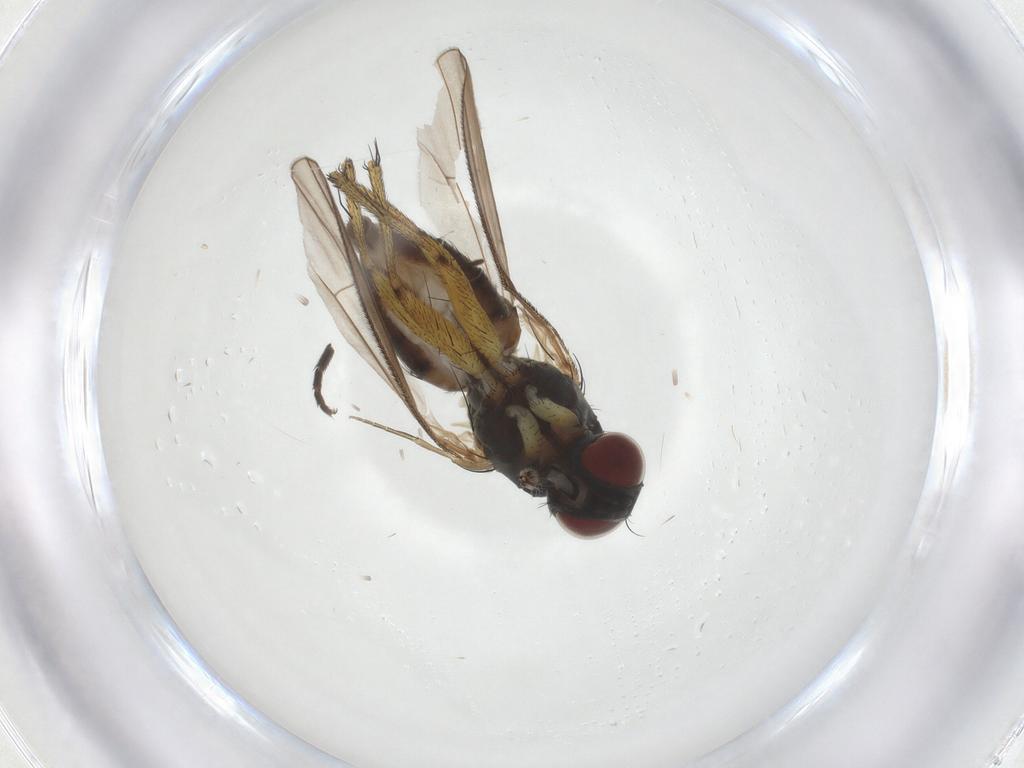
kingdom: Animalia
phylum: Arthropoda
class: Insecta
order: Diptera
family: Muscidae
